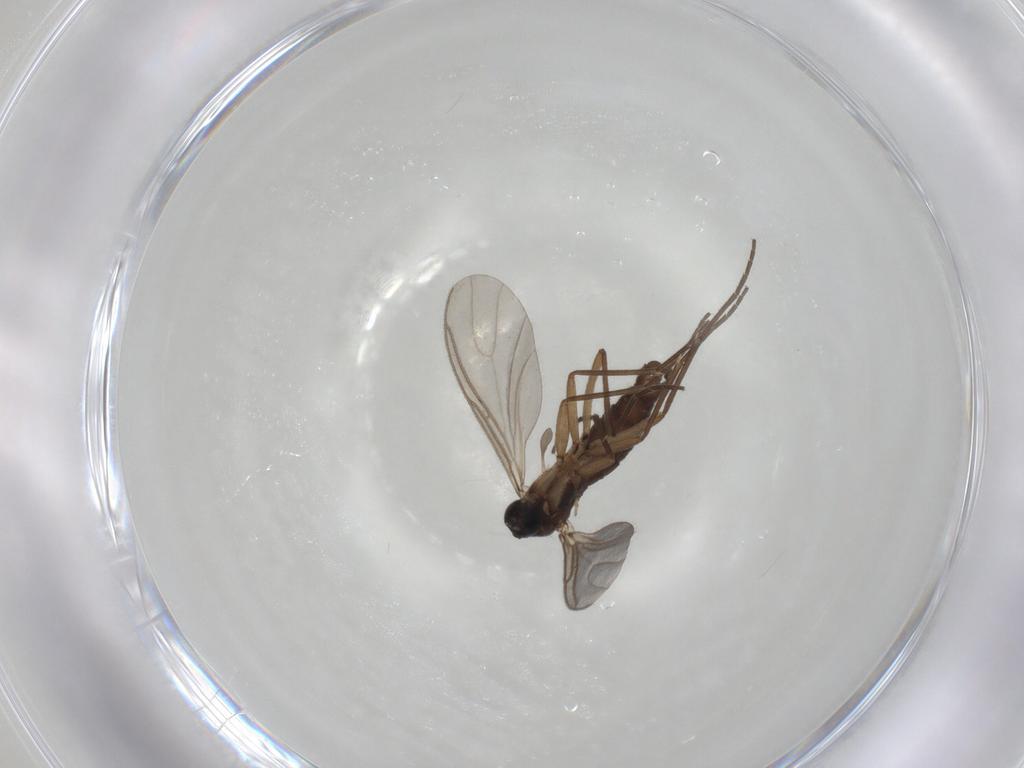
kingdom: Animalia
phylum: Arthropoda
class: Insecta
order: Diptera
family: Sciaridae
